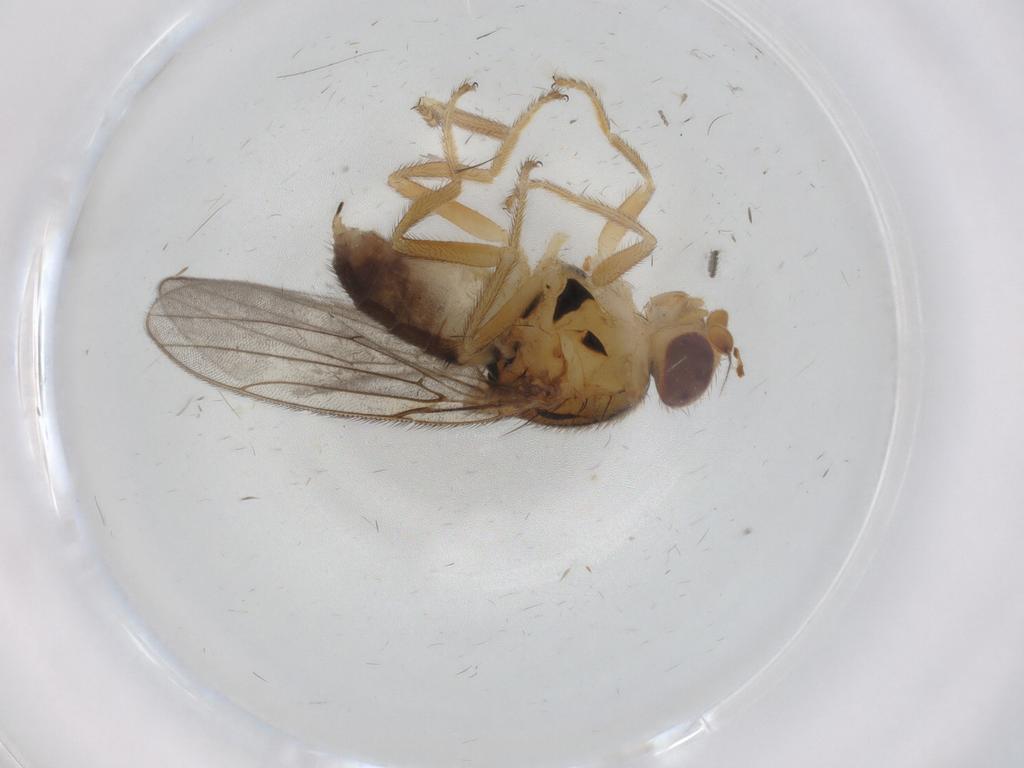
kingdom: Animalia
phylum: Arthropoda
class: Insecta
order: Diptera
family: Chloropidae
